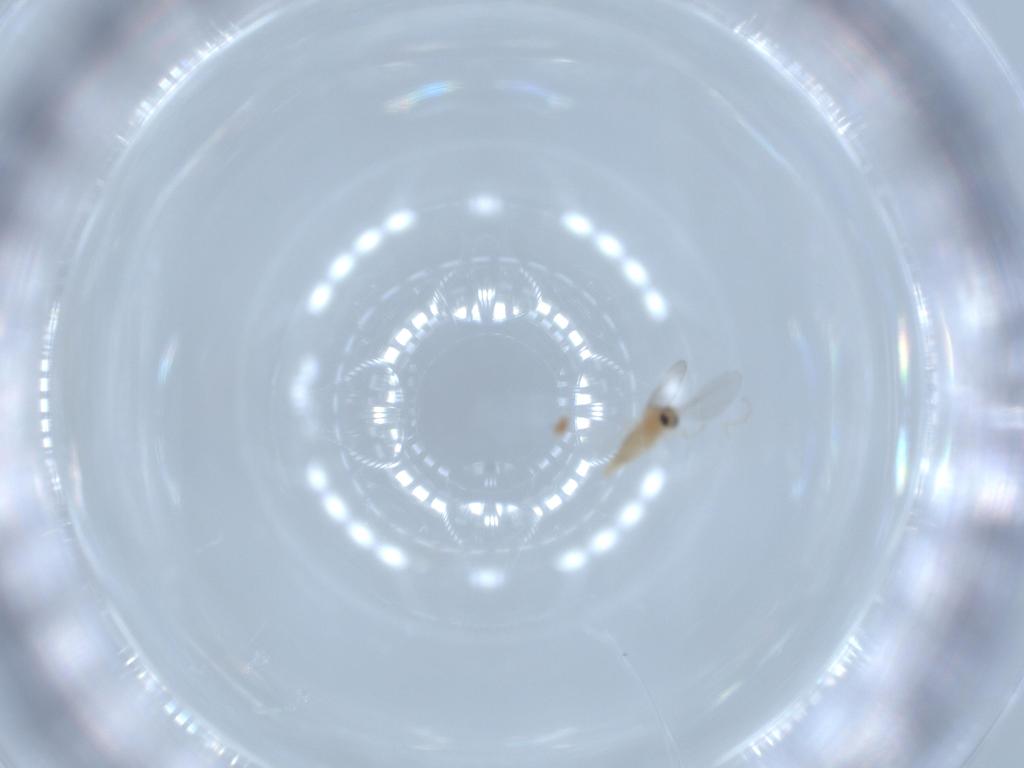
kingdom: Animalia
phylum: Arthropoda
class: Insecta
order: Diptera
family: Cecidomyiidae
